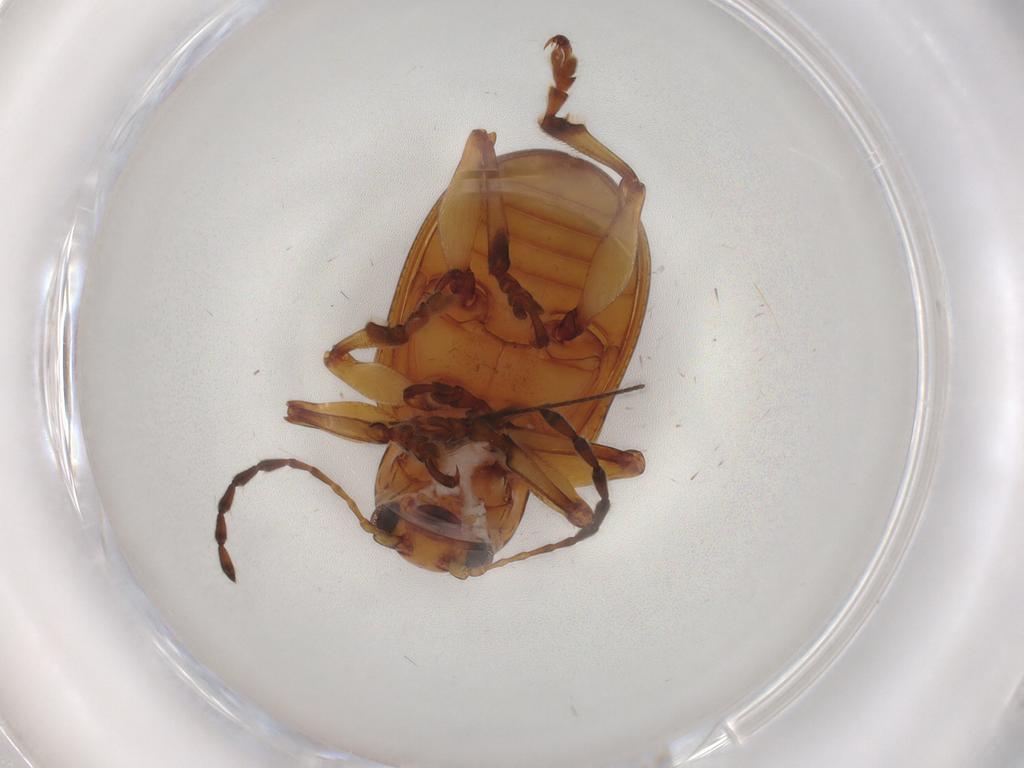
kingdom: Animalia
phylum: Arthropoda
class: Insecta
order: Coleoptera
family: Chrysomelidae
